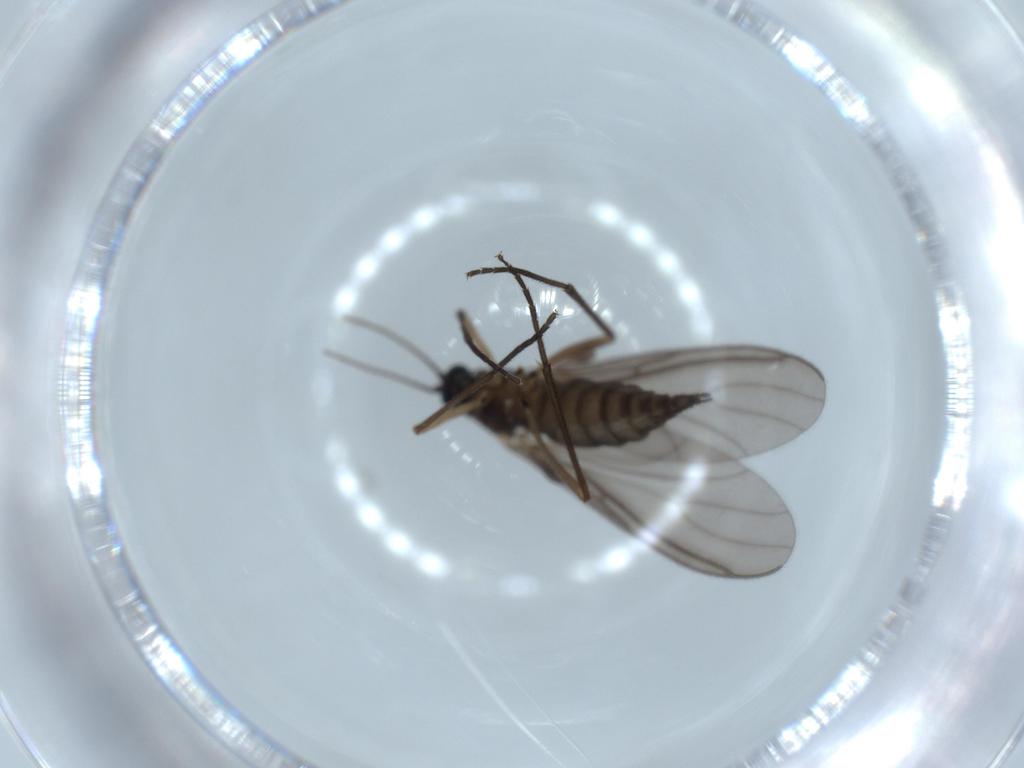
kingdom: Animalia
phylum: Arthropoda
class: Insecta
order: Diptera
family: Sciaridae
